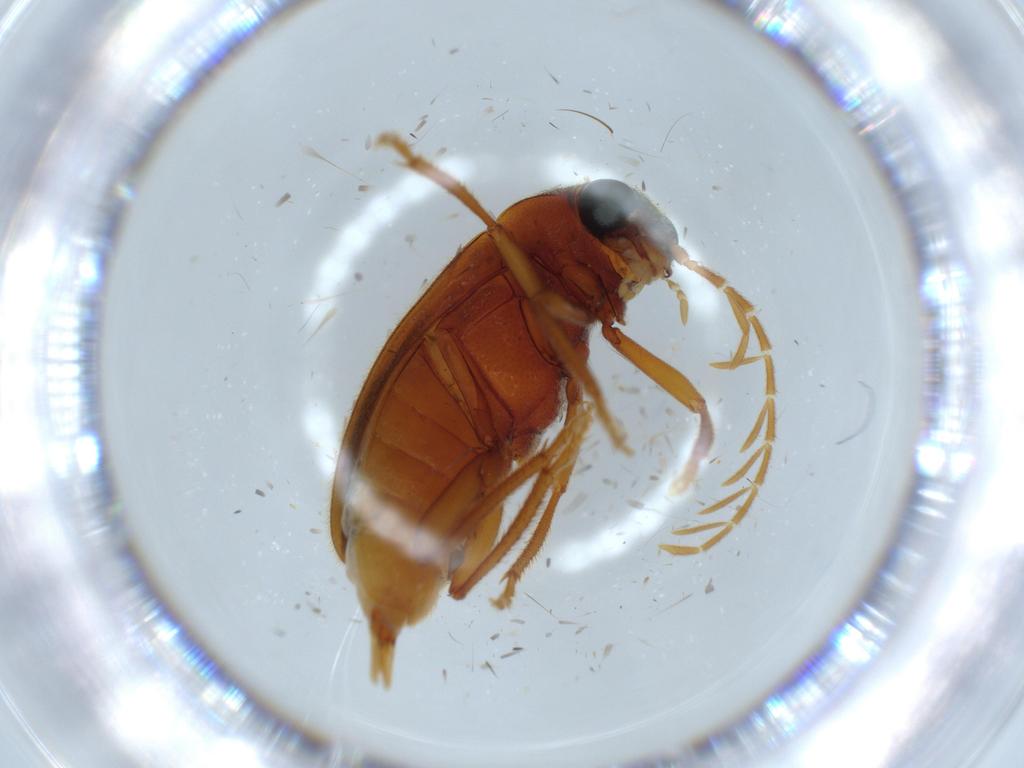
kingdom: Animalia
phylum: Arthropoda
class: Insecta
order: Coleoptera
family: Ptilodactylidae
